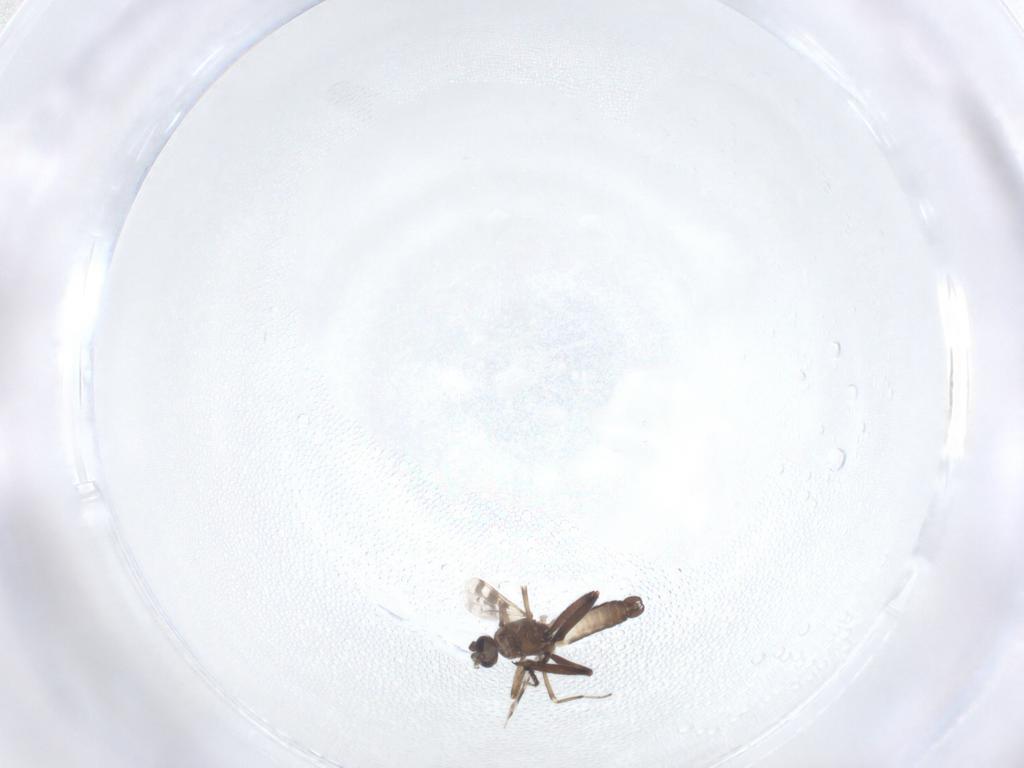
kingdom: Animalia
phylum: Arthropoda
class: Insecta
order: Diptera
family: Ceratopogonidae
